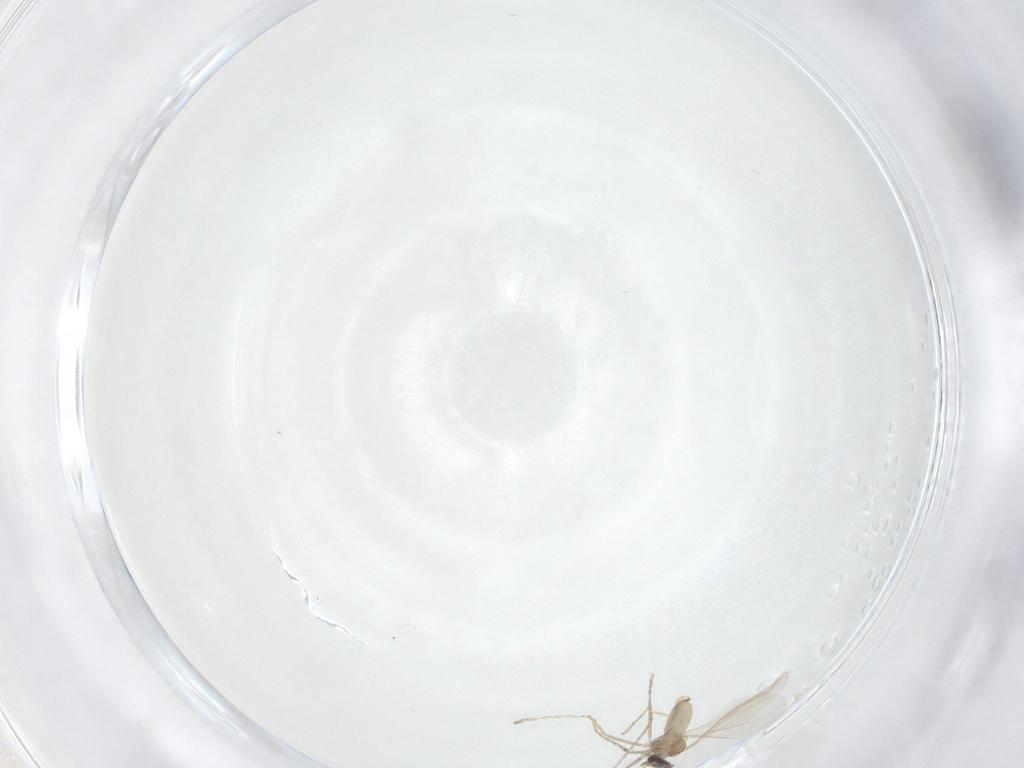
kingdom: Animalia
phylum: Arthropoda
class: Insecta
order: Diptera
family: Cecidomyiidae
